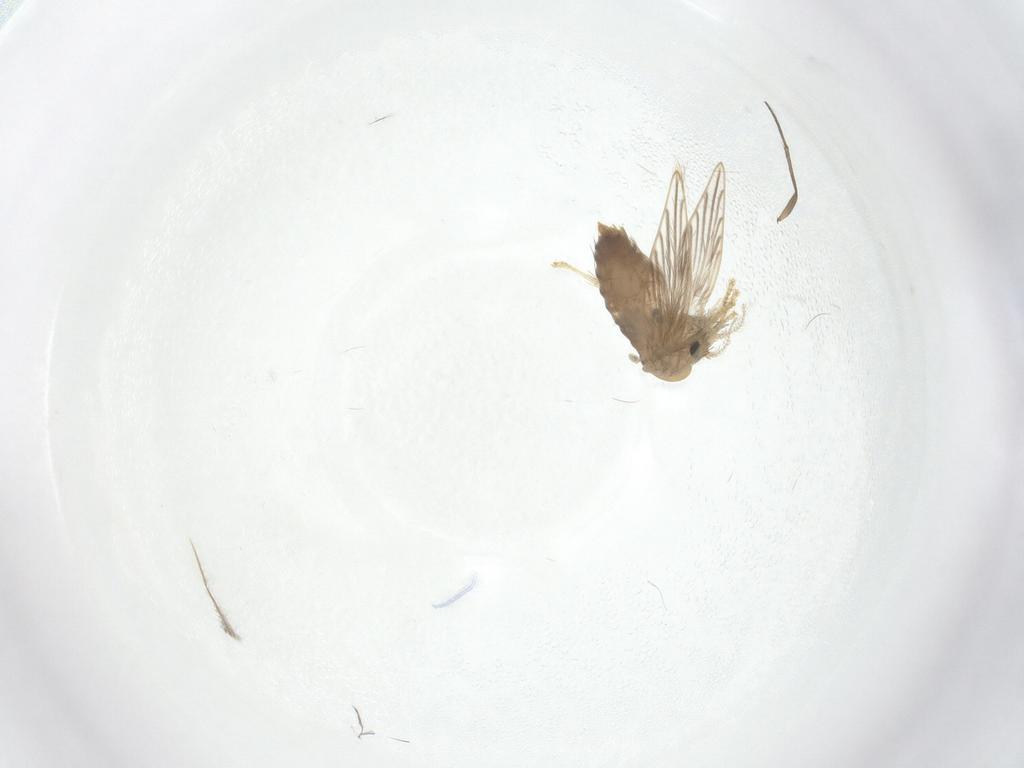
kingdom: Animalia
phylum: Arthropoda
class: Insecta
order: Diptera
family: Psychodidae
